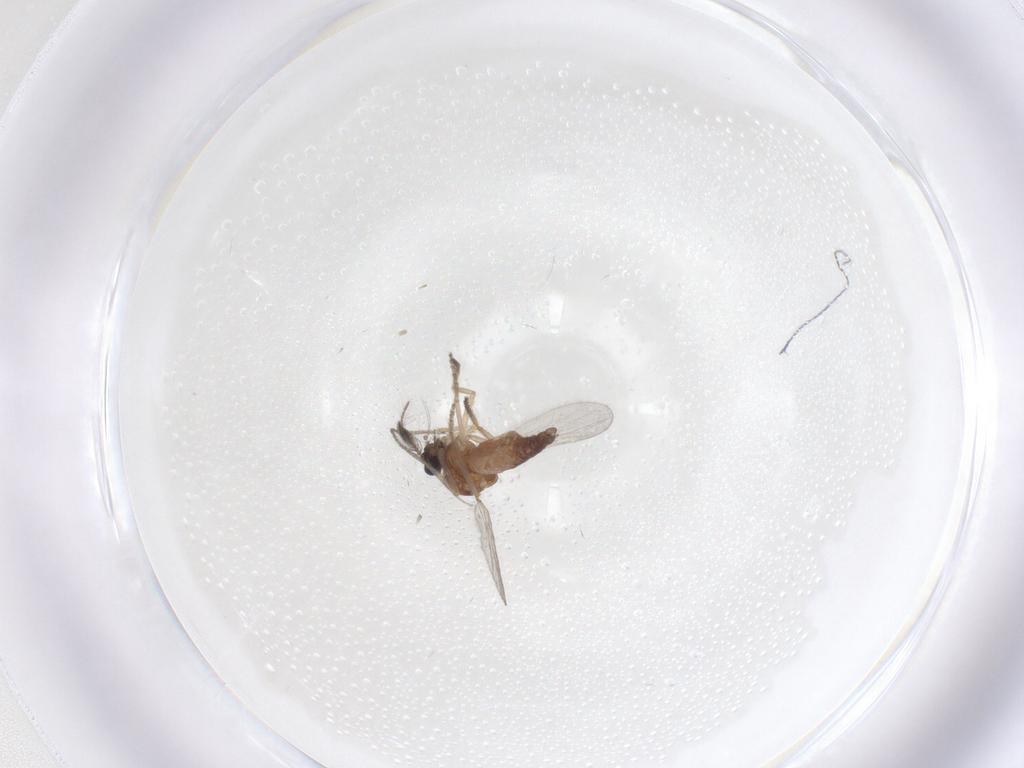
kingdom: Animalia
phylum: Arthropoda
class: Insecta
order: Diptera
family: Ceratopogonidae
